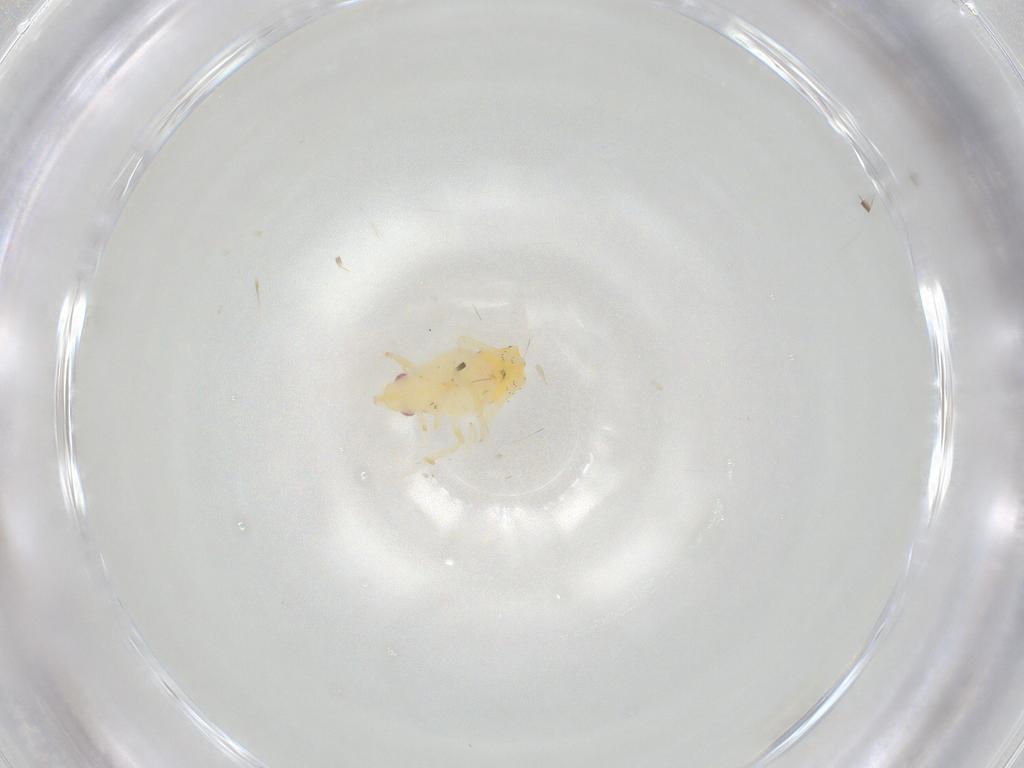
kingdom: Animalia
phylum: Arthropoda
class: Insecta
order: Hemiptera
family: Fulgoroidea_incertae_sedis
